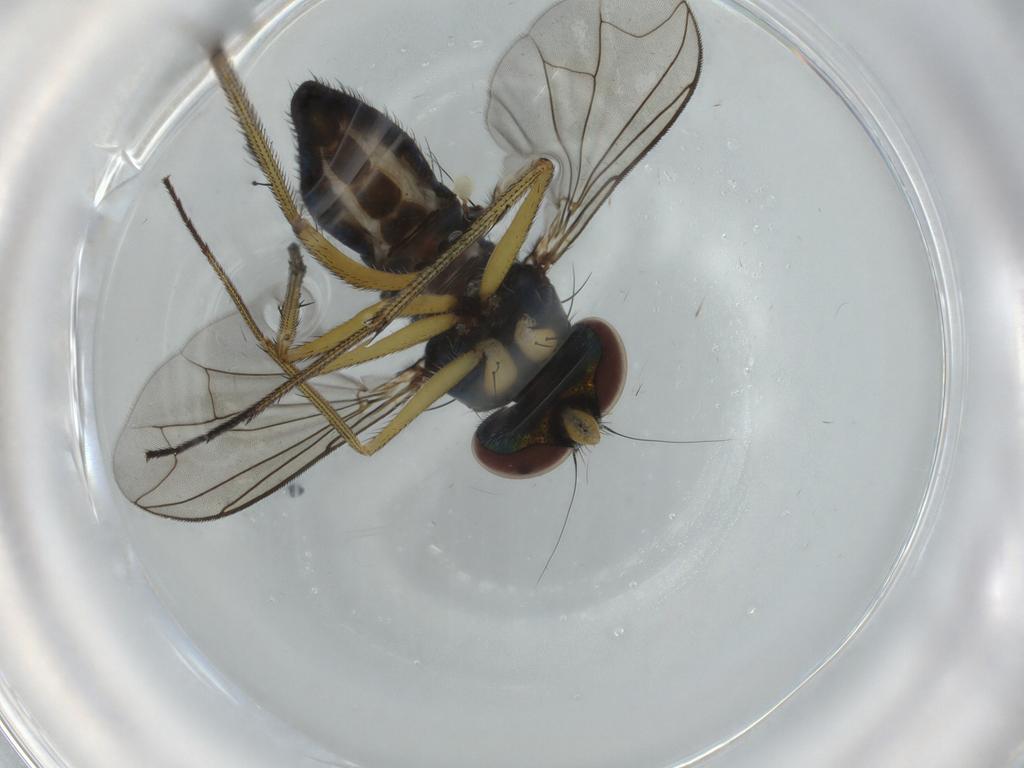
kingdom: Animalia
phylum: Arthropoda
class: Insecta
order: Diptera
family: Dolichopodidae
